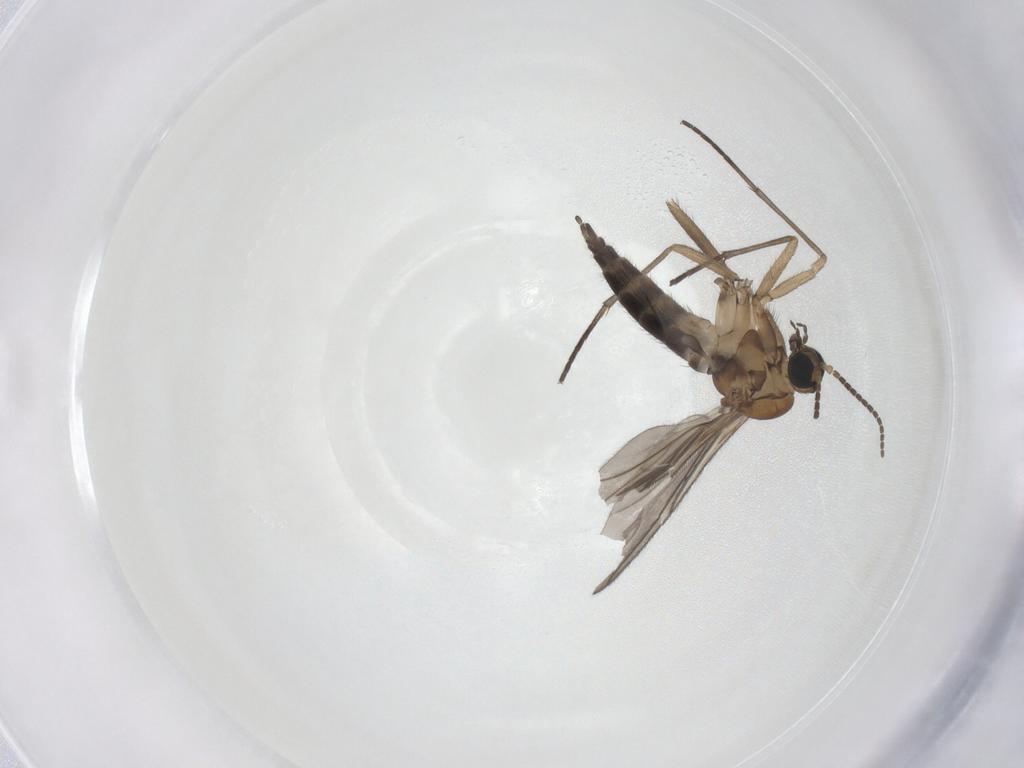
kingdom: Animalia
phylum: Arthropoda
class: Insecta
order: Diptera
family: Sciaridae
